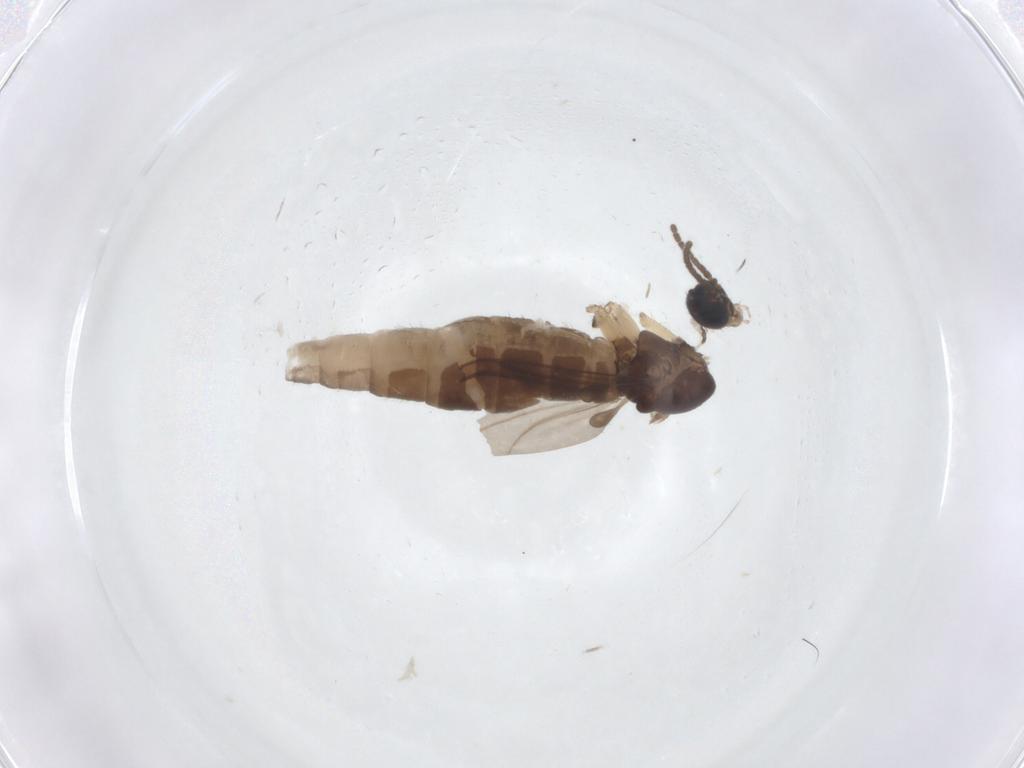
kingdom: Animalia
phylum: Arthropoda
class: Insecta
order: Diptera
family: Sciaridae
